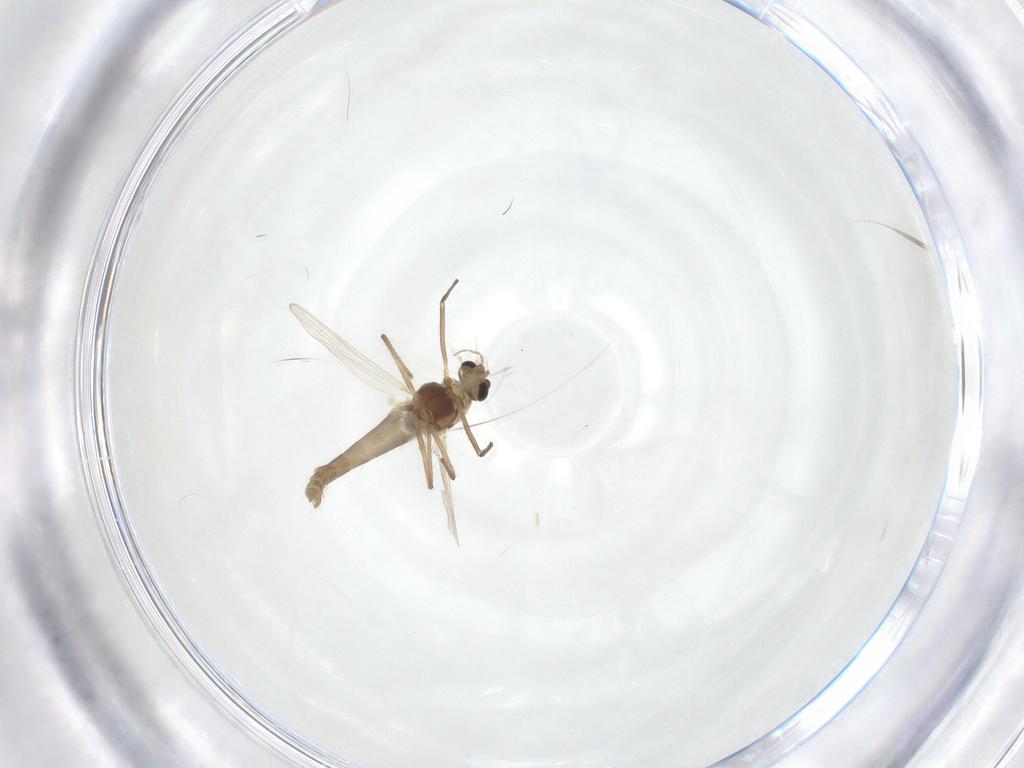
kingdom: Animalia
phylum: Arthropoda
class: Insecta
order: Diptera
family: Chironomidae
